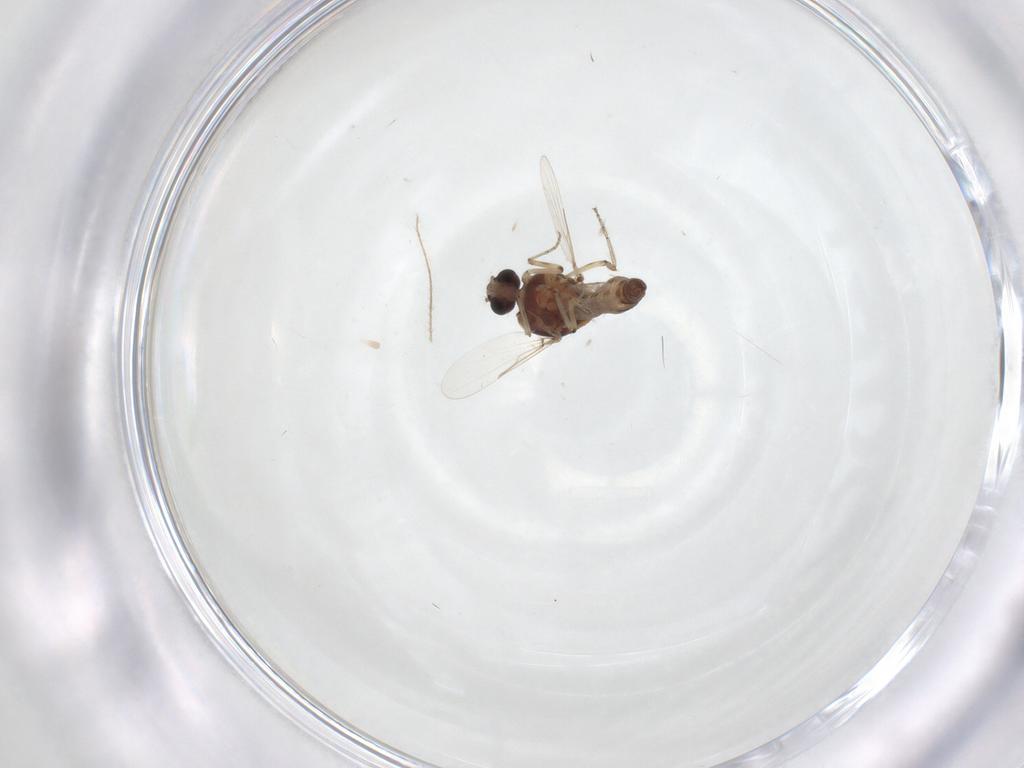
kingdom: Animalia
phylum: Arthropoda
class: Insecta
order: Diptera
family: Ceratopogonidae
